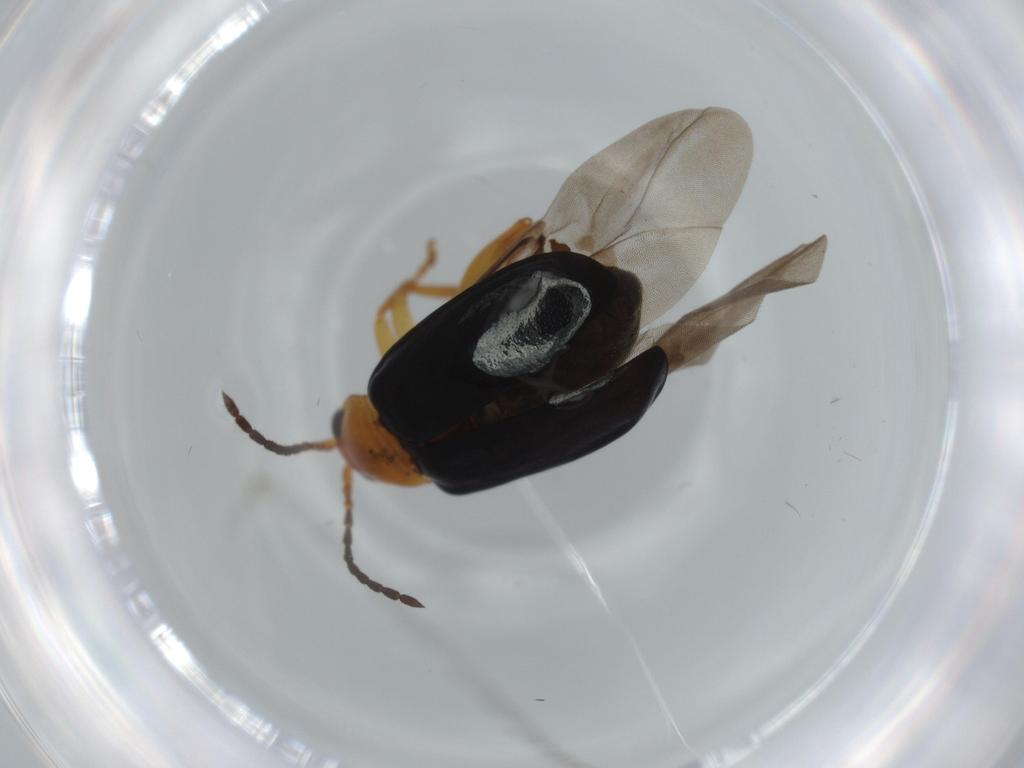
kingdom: Animalia
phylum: Arthropoda
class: Insecta
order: Coleoptera
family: Chrysomelidae
